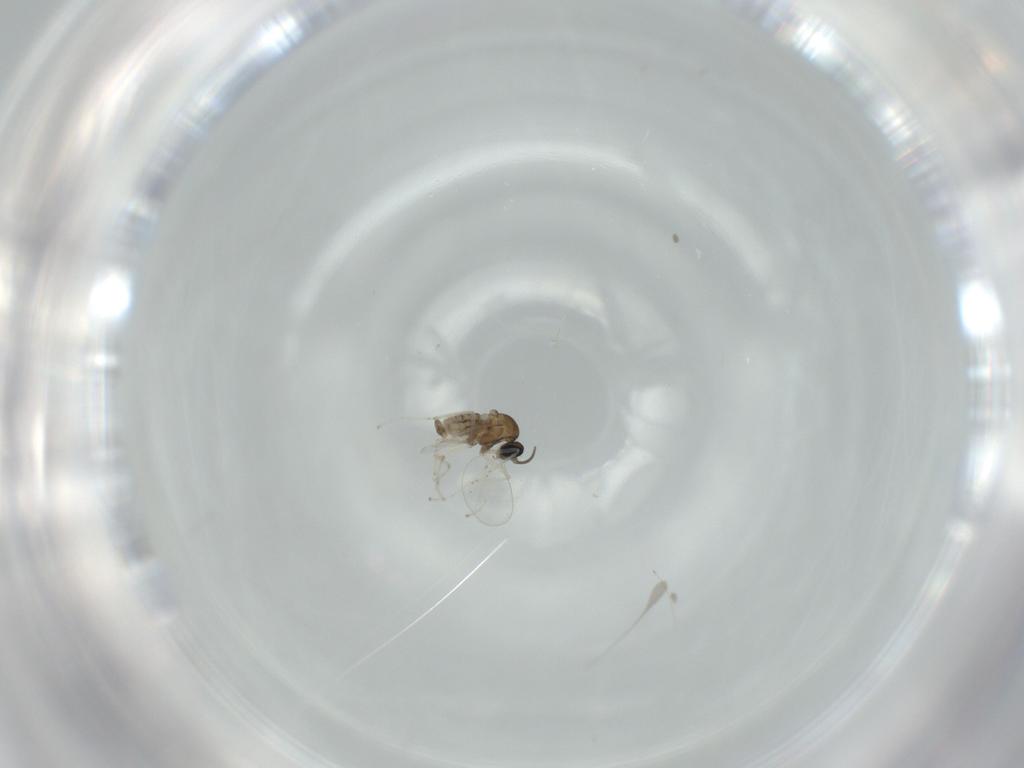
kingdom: Animalia
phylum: Arthropoda
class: Insecta
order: Diptera
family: Cecidomyiidae
